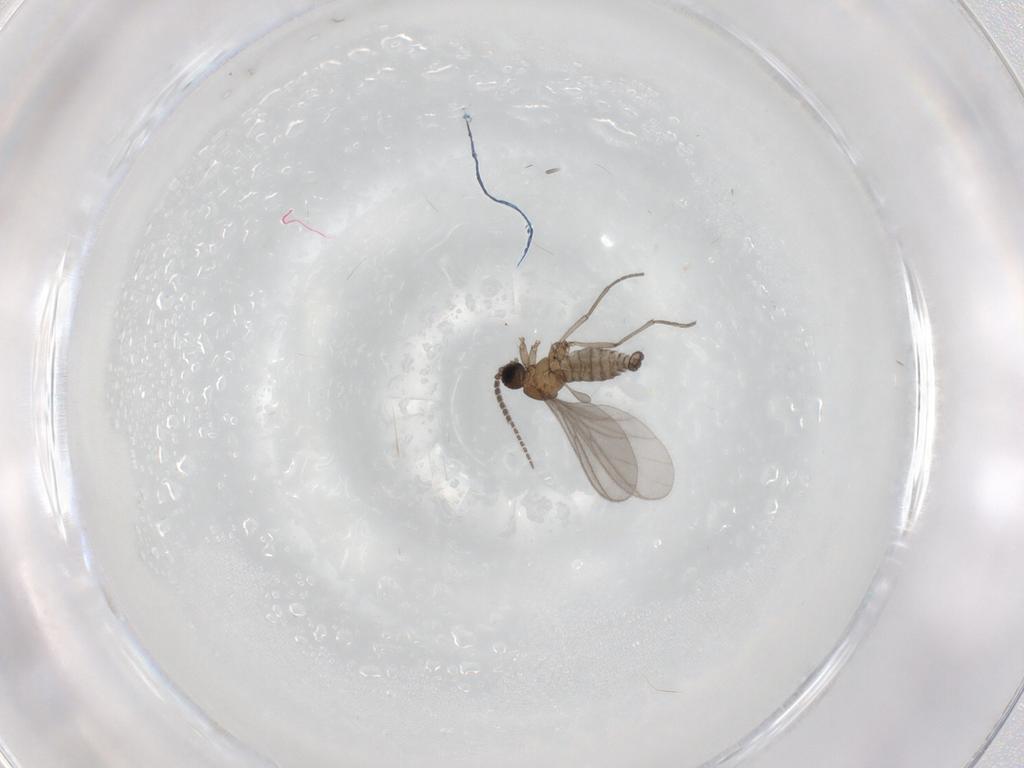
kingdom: Animalia
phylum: Arthropoda
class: Insecta
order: Diptera
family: Sciaridae
